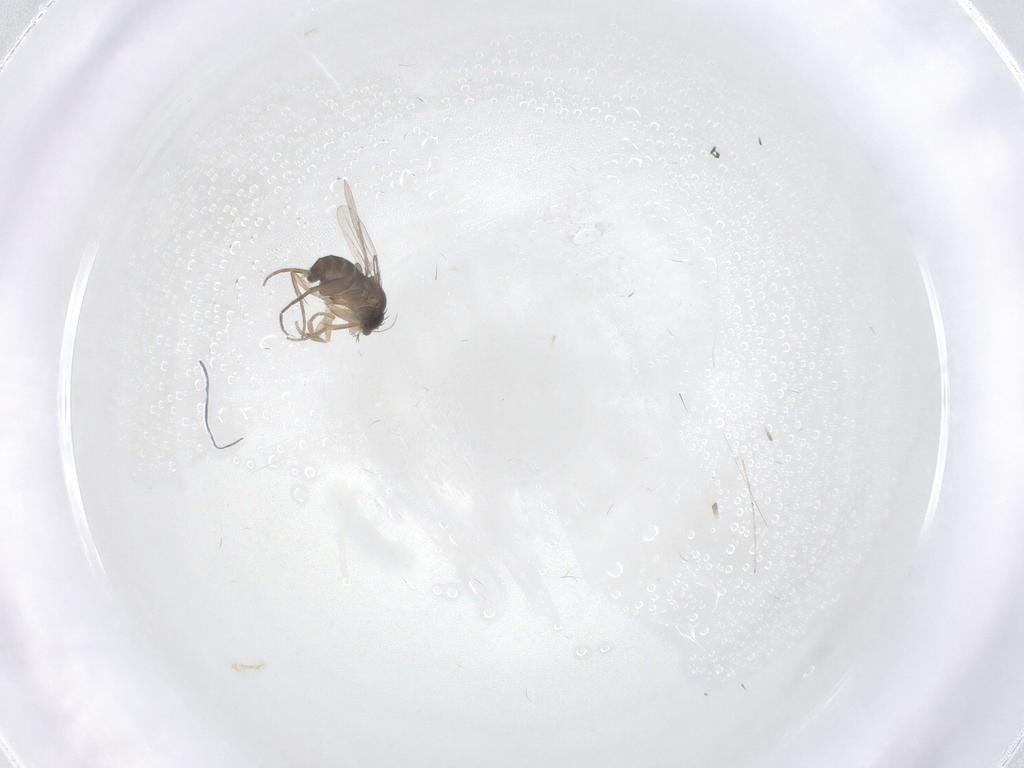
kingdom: Animalia
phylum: Arthropoda
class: Insecta
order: Diptera
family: Phoridae
